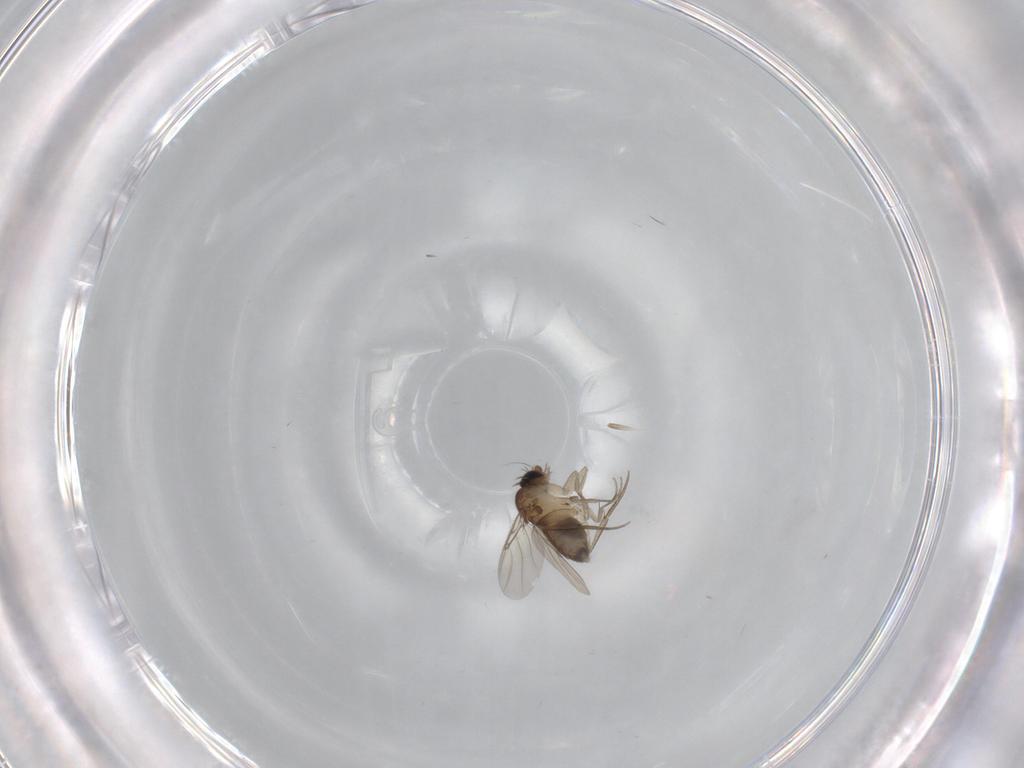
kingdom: Animalia
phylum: Arthropoda
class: Insecta
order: Diptera
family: Phoridae
